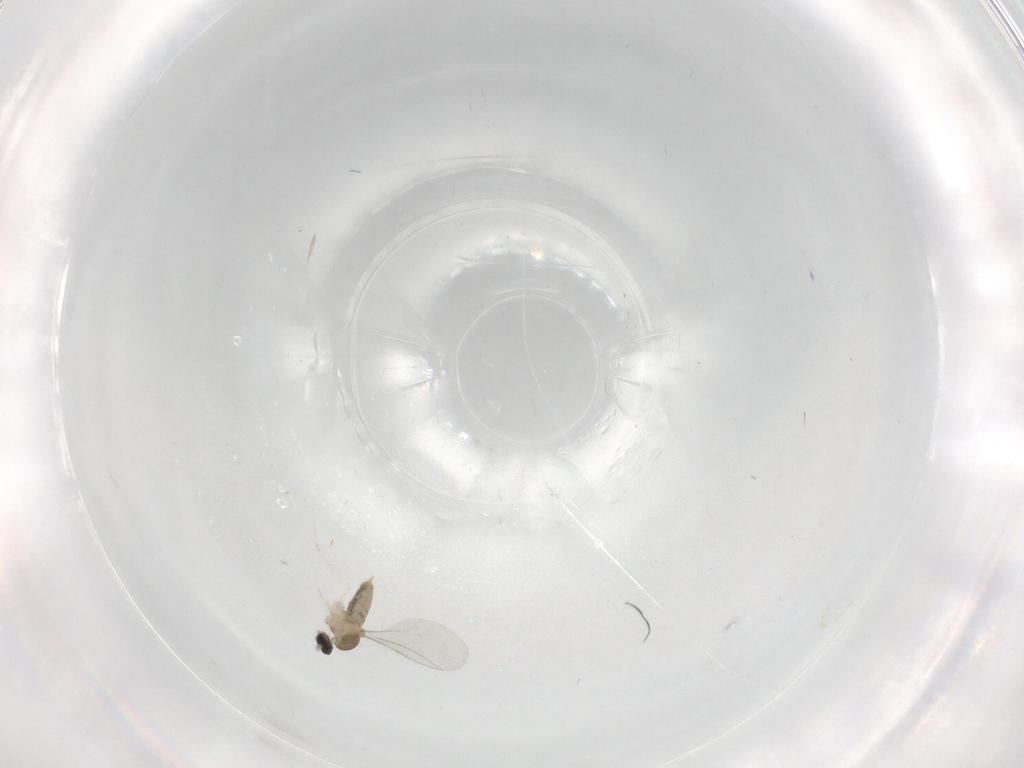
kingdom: Animalia
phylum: Arthropoda
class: Insecta
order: Diptera
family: Cecidomyiidae
